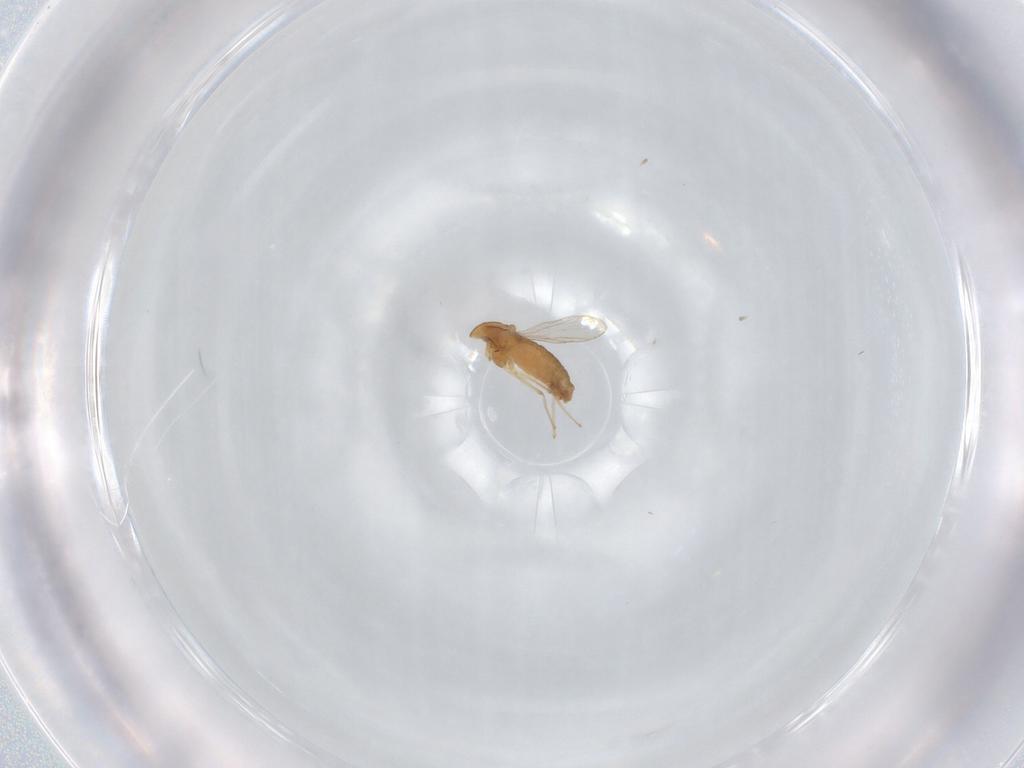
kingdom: Animalia
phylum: Arthropoda
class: Insecta
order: Diptera
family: Chironomidae
